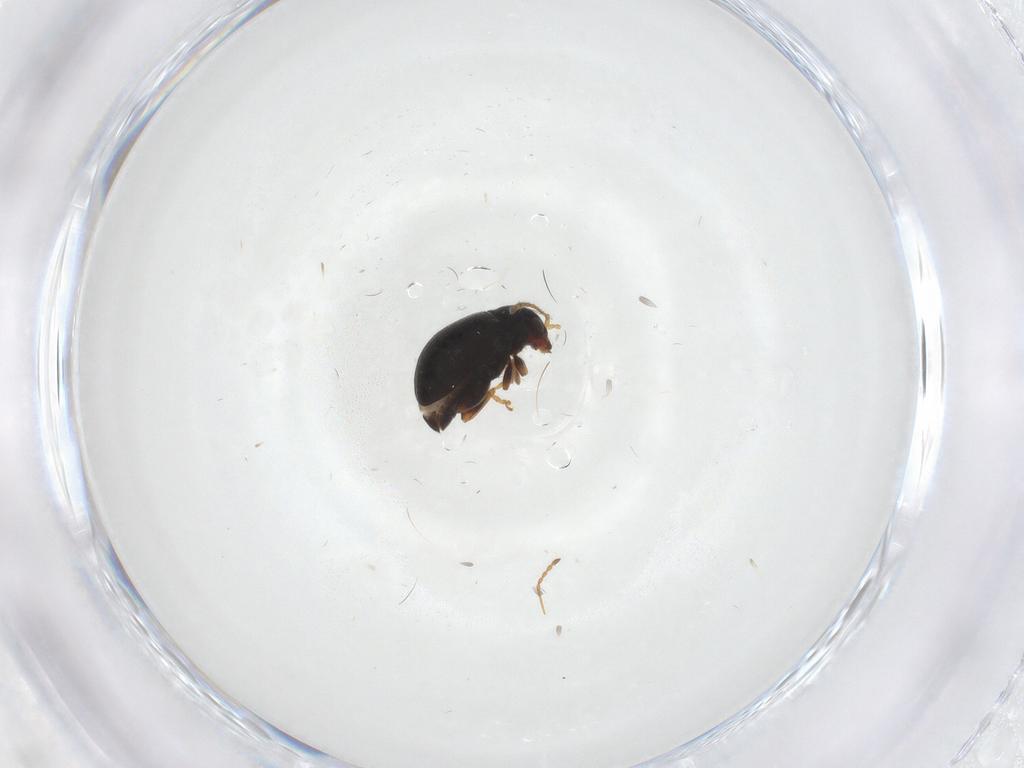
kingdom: Animalia
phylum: Arthropoda
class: Insecta
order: Coleoptera
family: Chrysomelidae
